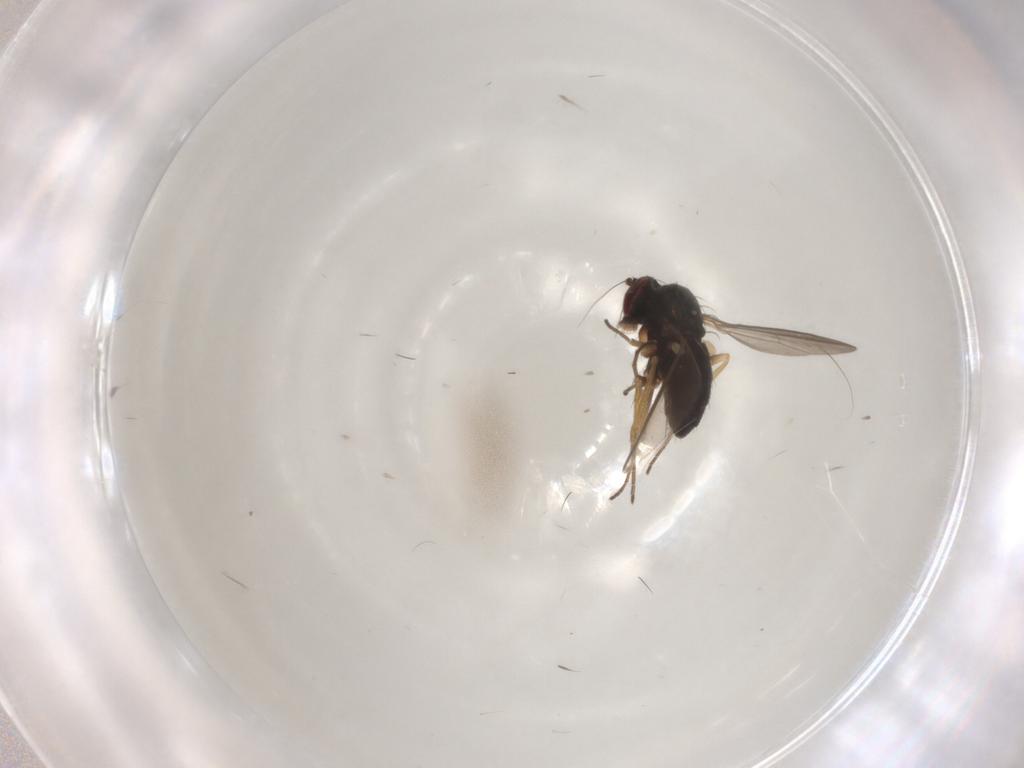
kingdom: Animalia
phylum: Arthropoda
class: Insecta
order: Diptera
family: Dolichopodidae
